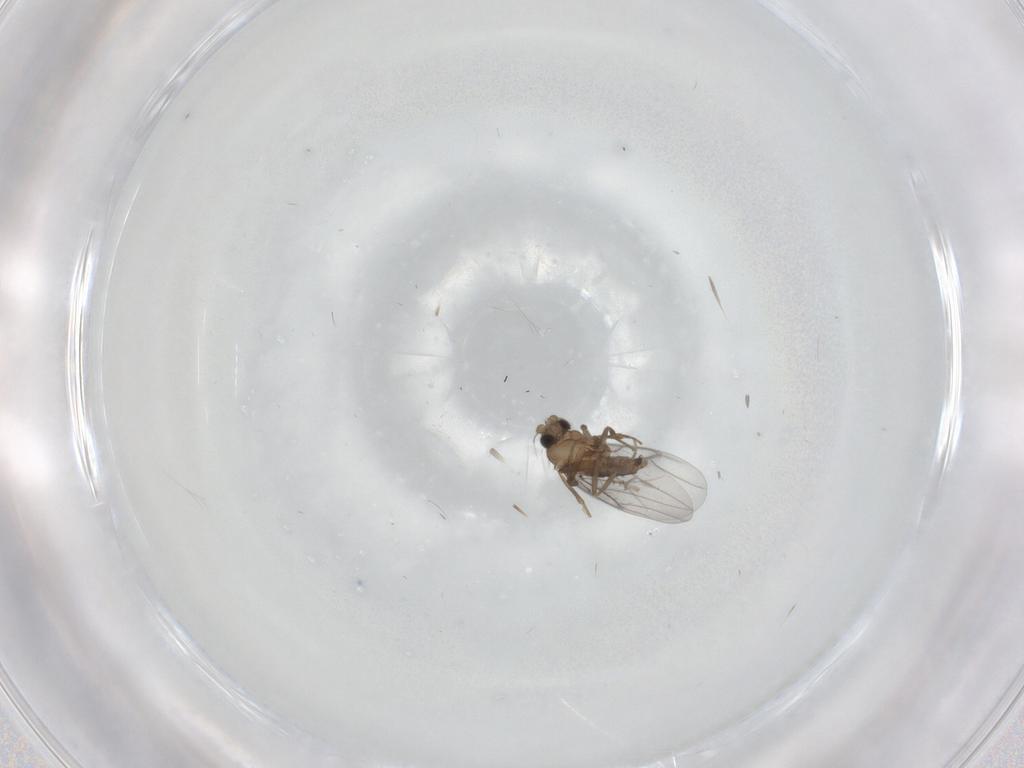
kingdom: Animalia
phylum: Arthropoda
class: Insecta
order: Diptera
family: Cecidomyiidae
